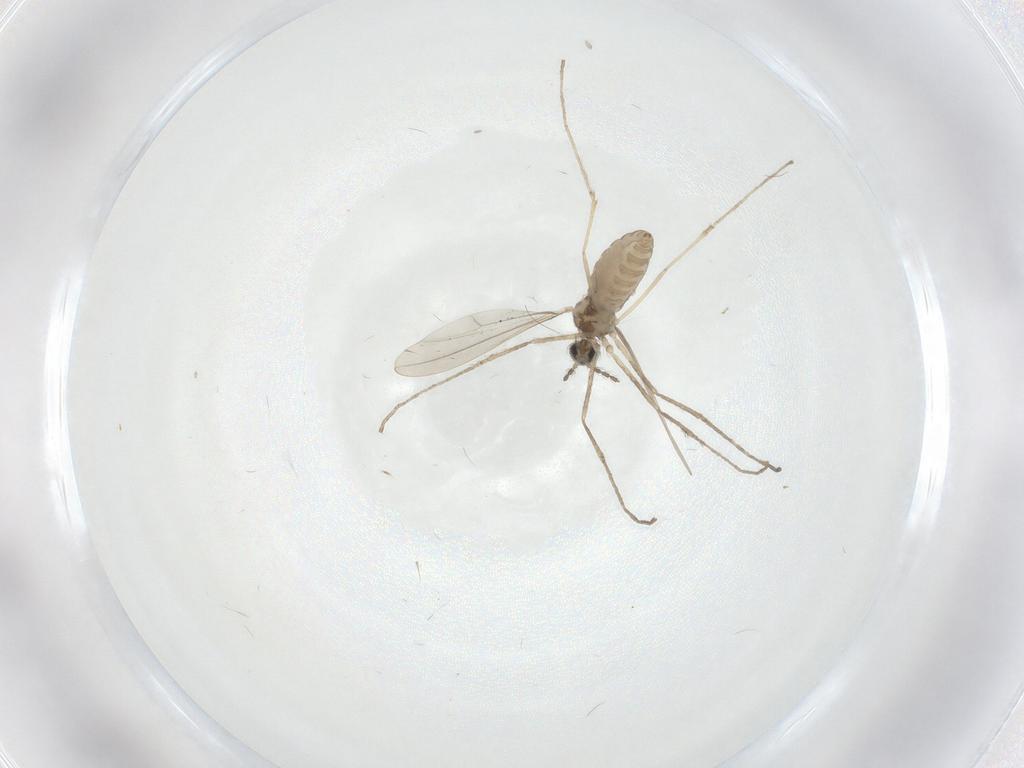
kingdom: Animalia
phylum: Arthropoda
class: Insecta
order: Diptera
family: Cecidomyiidae
